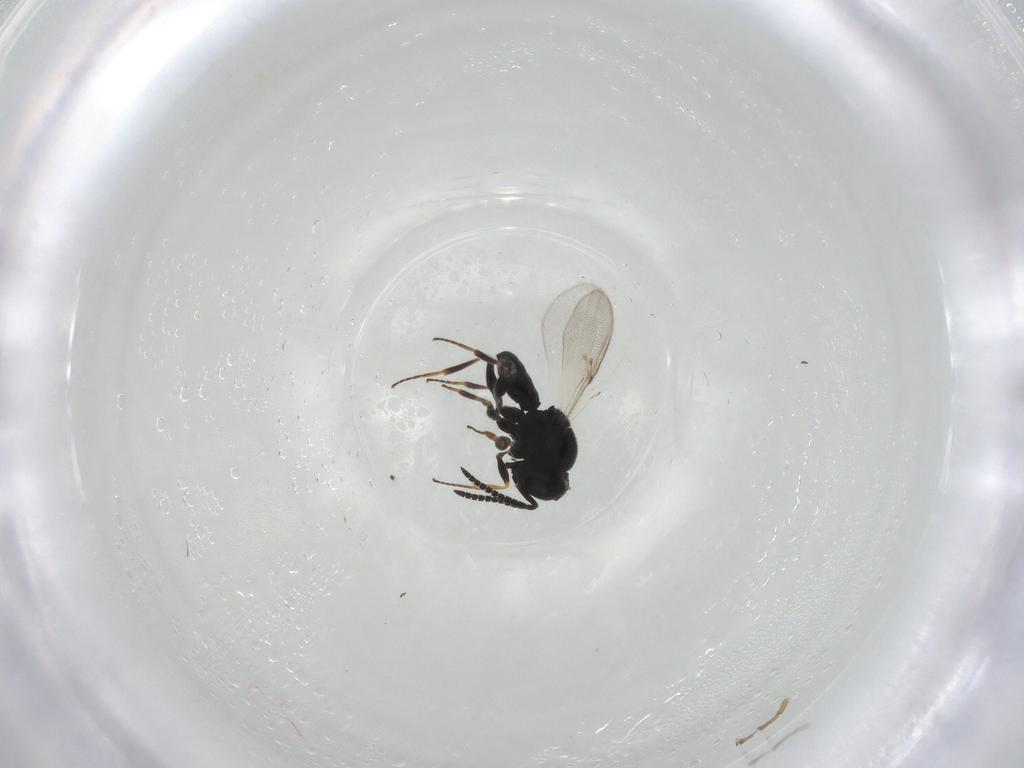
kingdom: Animalia
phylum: Arthropoda
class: Insecta
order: Hymenoptera
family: Scelionidae
